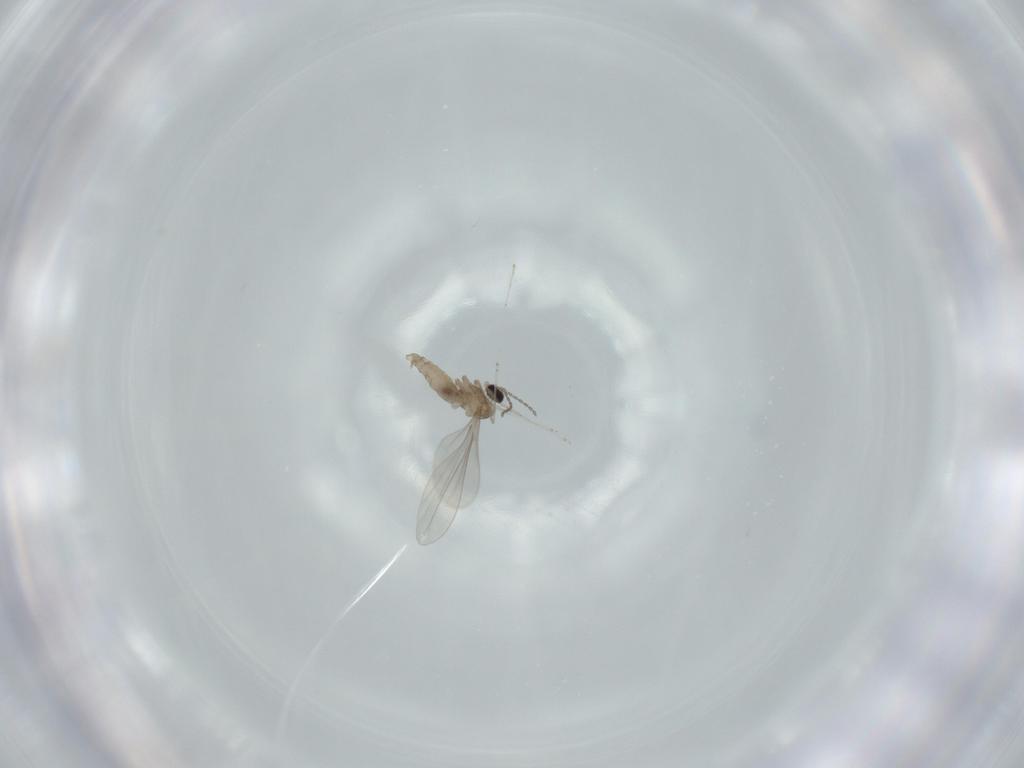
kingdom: Animalia
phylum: Arthropoda
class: Insecta
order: Diptera
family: Cecidomyiidae
